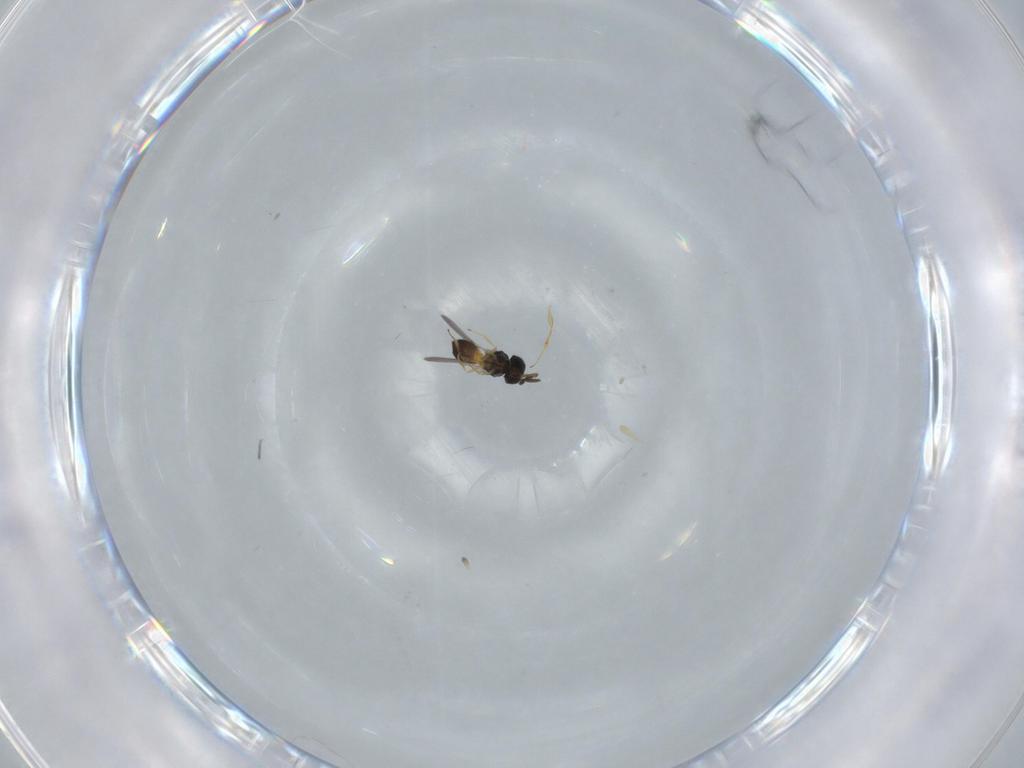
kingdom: Animalia
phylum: Arthropoda
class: Insecta
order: Hymenoptera
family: Scelionidae
